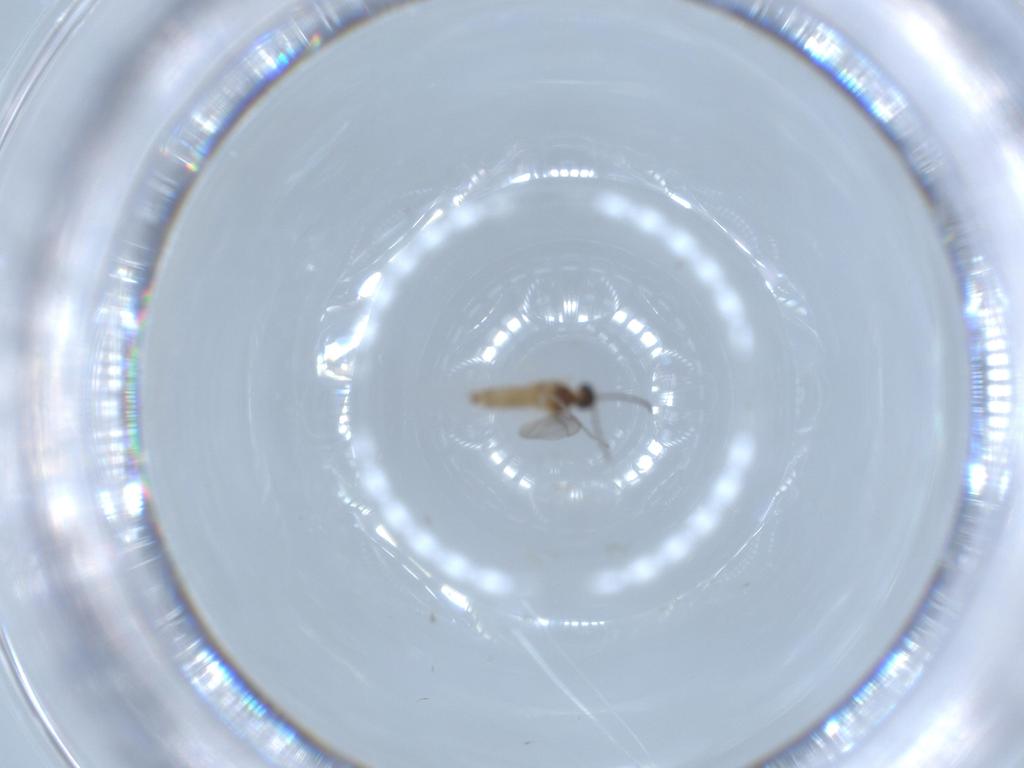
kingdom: Animalia
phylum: Arthropoda
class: Insecta
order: Diptera
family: Cecidomyiidae
